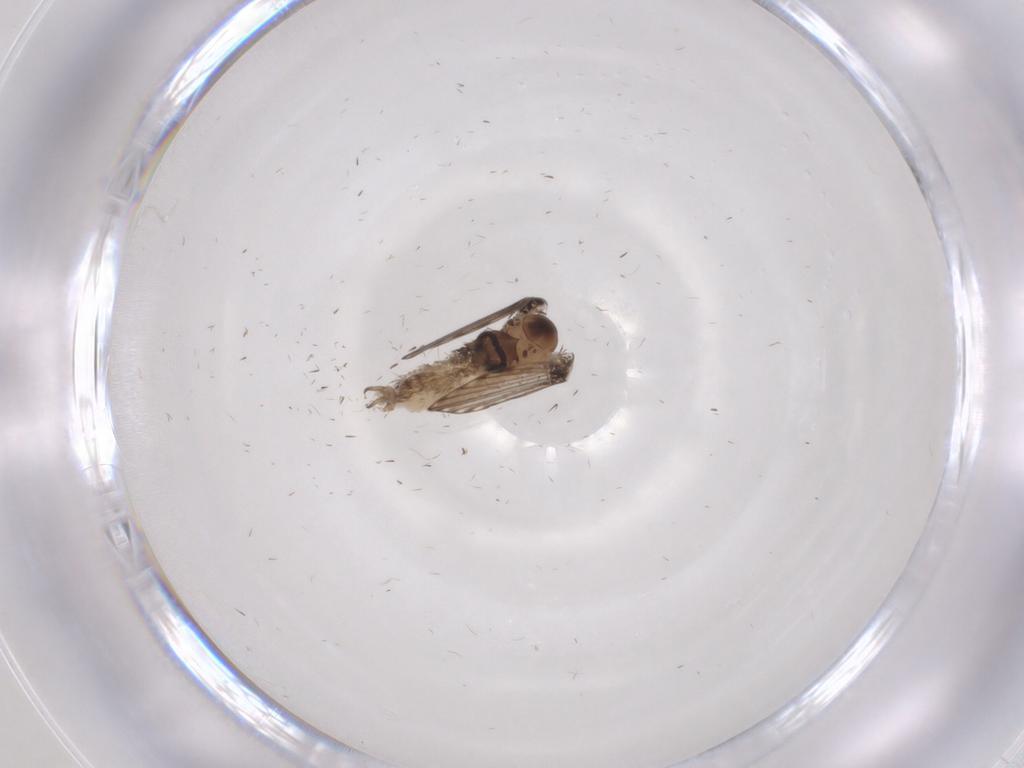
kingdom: Animalia
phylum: Arthropoda
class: Insecta
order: Diptera
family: Psychodidae
